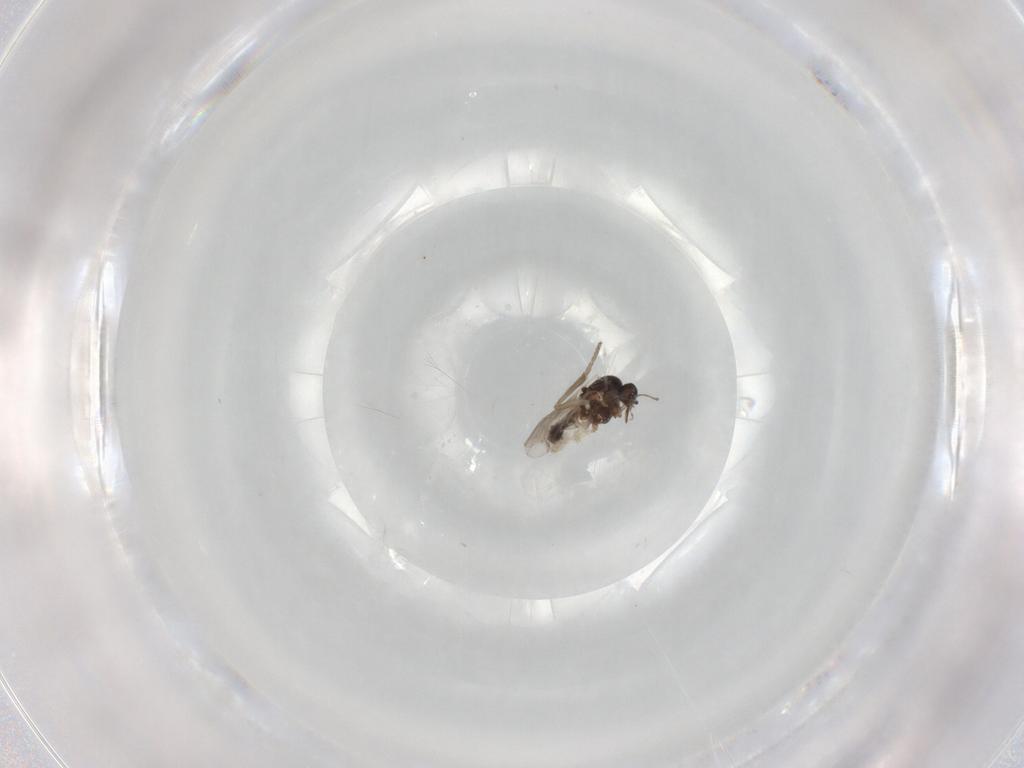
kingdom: Animalia
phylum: Arthropoda
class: Insecta
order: Diptera
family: Psychodidae
